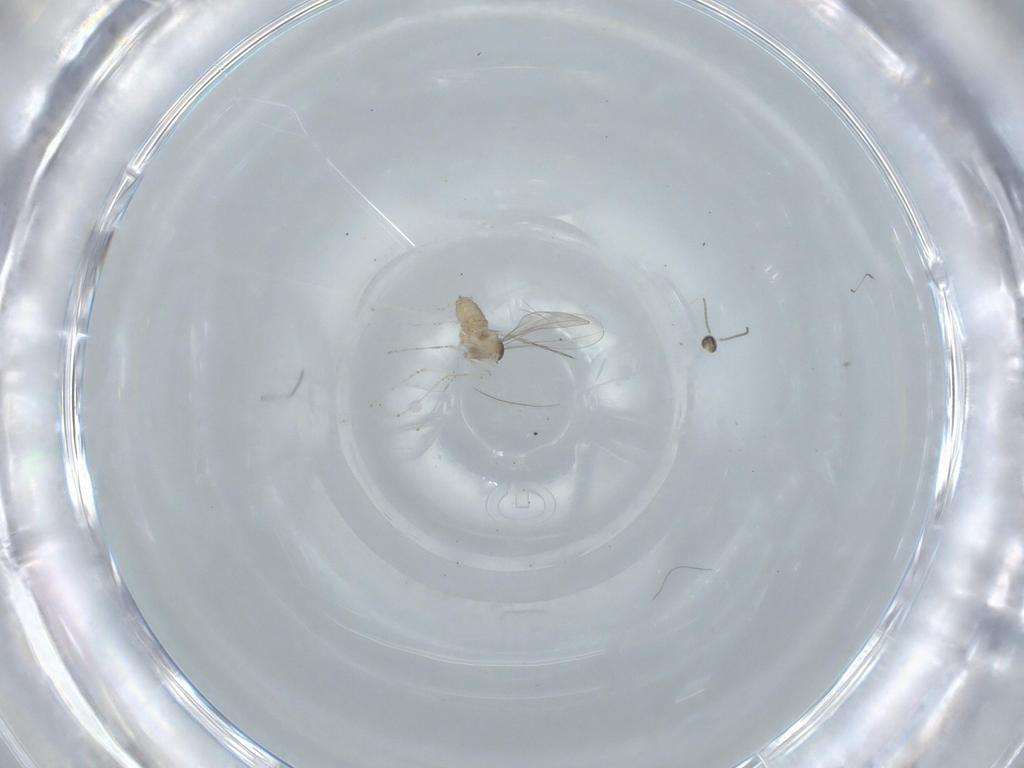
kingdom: Animalia
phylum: Arthropoda
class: Insecta
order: Diptera
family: Cecidomyiidae
